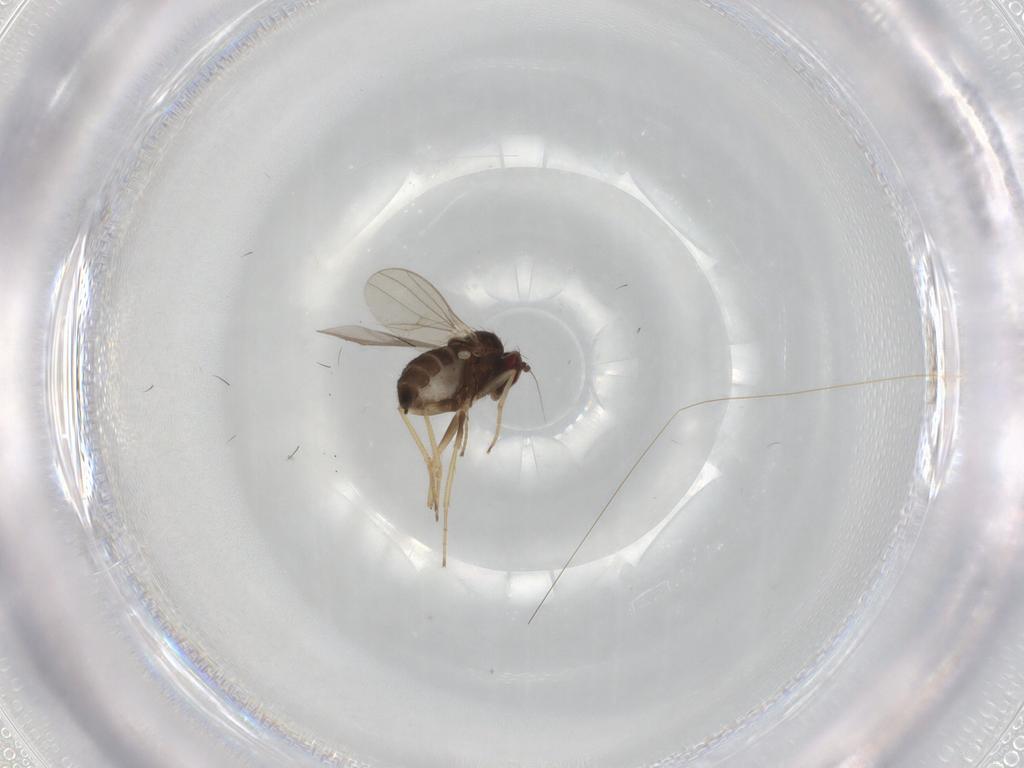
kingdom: Animalia
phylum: Arthropoda
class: Insecta
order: Diptera
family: Dolichopodidae
